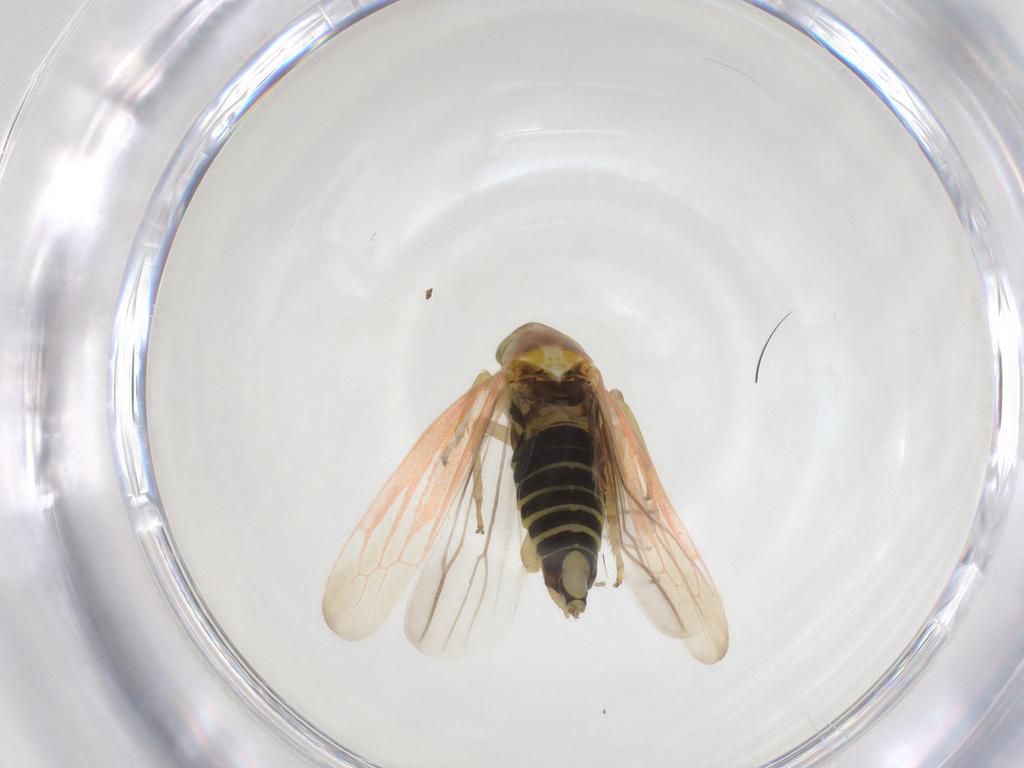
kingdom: Animalia
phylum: Arthropoda
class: Insecta
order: Hemiptera
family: Cicadellidae
